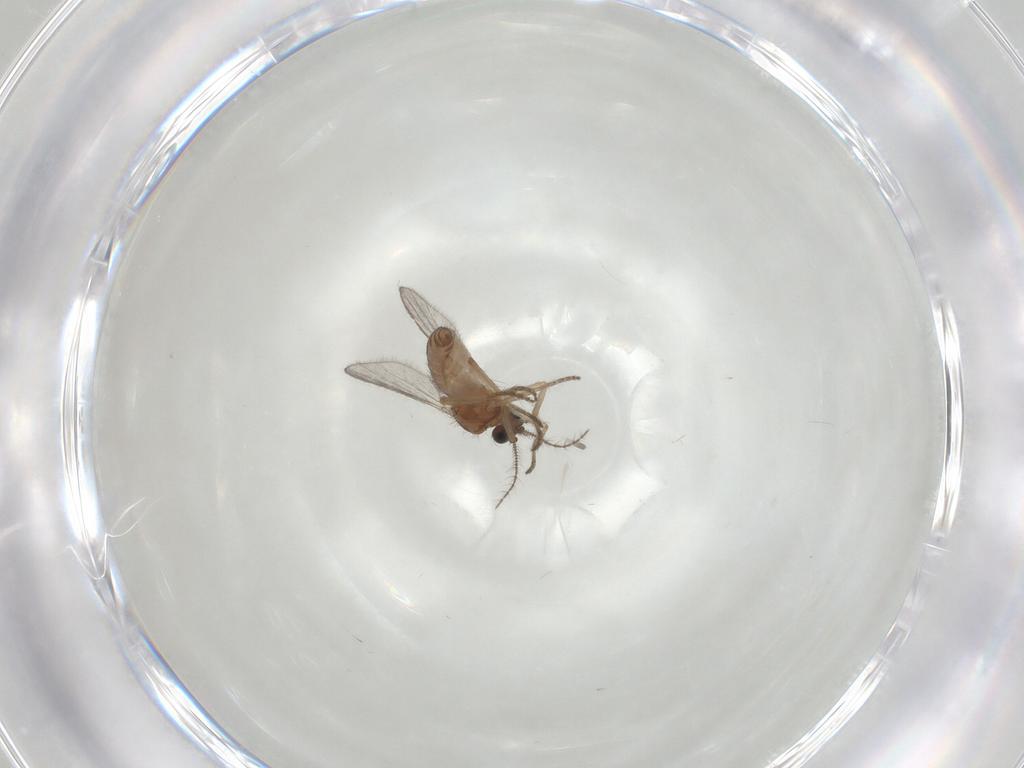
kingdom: Animalia
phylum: Arthropoda
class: Insecta
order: Diptera
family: Ceratopogonidae
